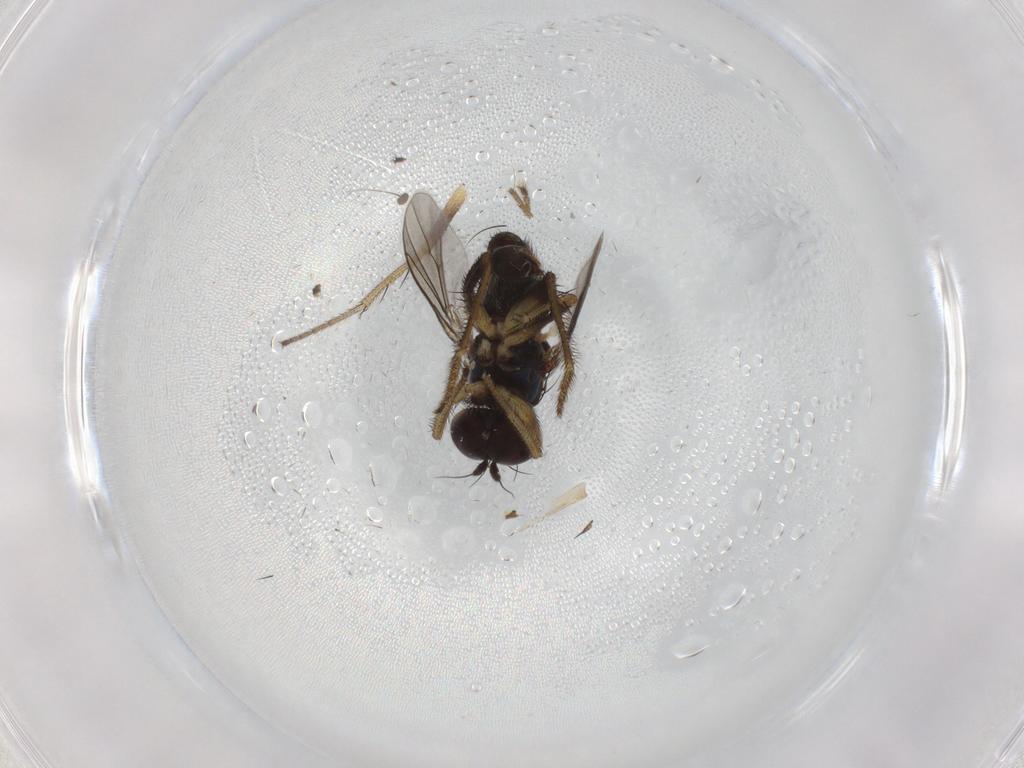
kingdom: Animalia
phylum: Arthropoda
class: Insecta
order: Diptera
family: Dolichopodidae
